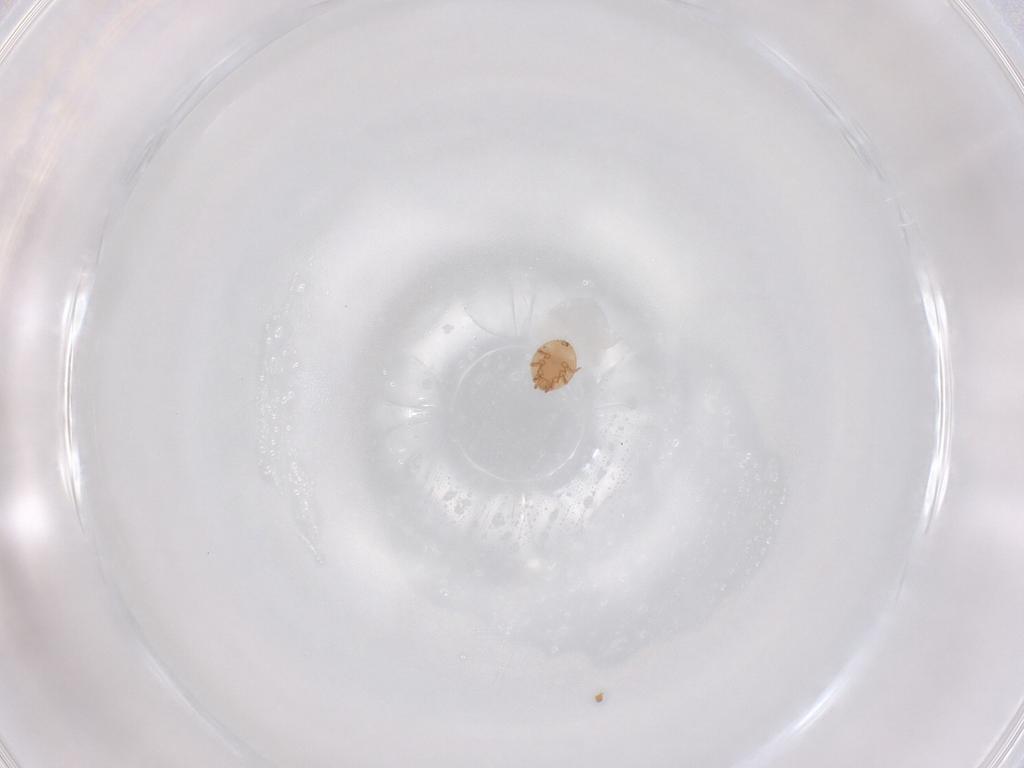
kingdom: Animalia
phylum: Arthropoda
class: Arachnida
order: Mesostigmata
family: Trematuridae
